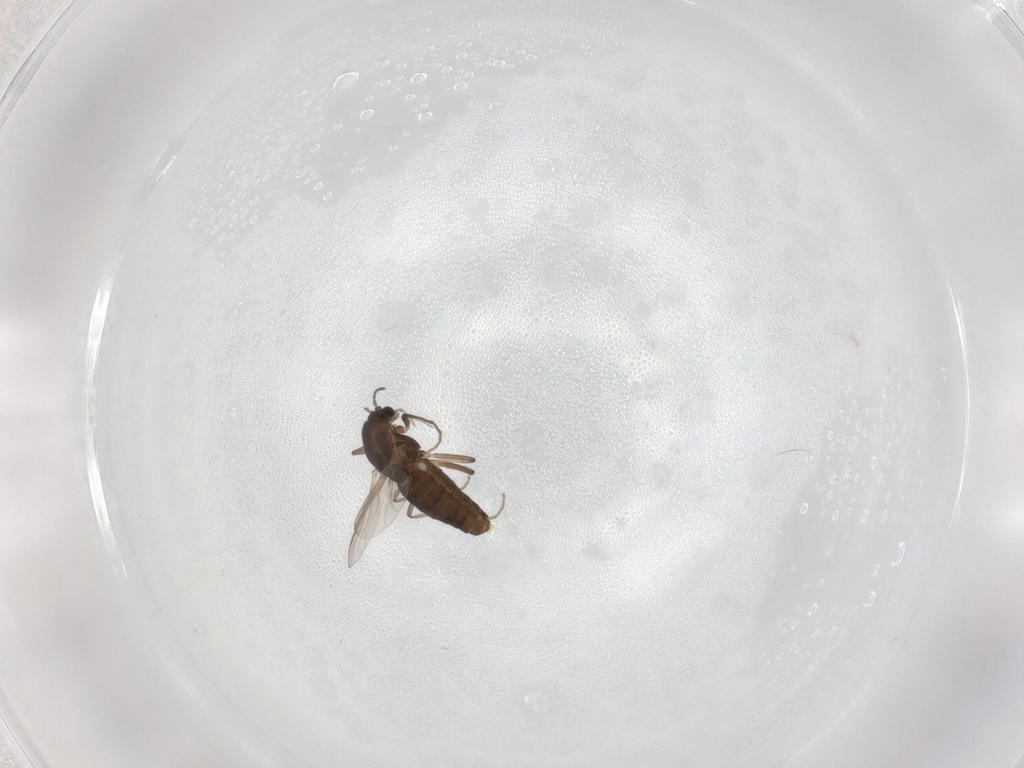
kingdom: Animalia
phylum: Arthropoda
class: Insecta
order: Diptera
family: Chironomidae
